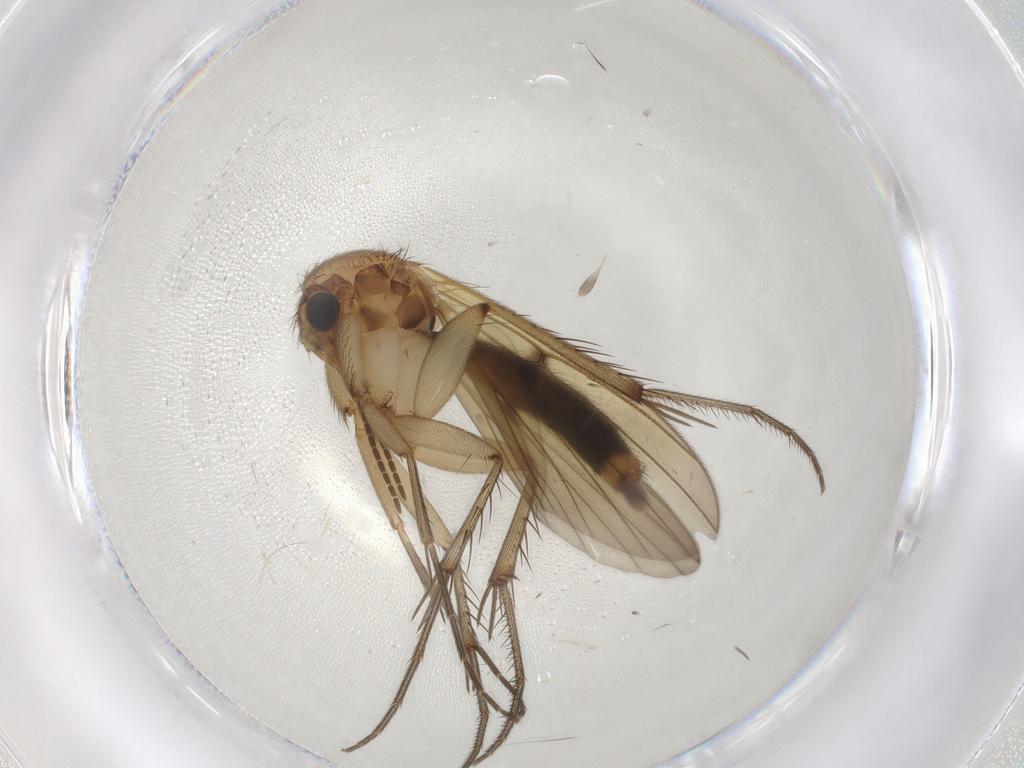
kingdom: Animalia
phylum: Arthropoda
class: Insecta
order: Diptera
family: Mycetophilidae
